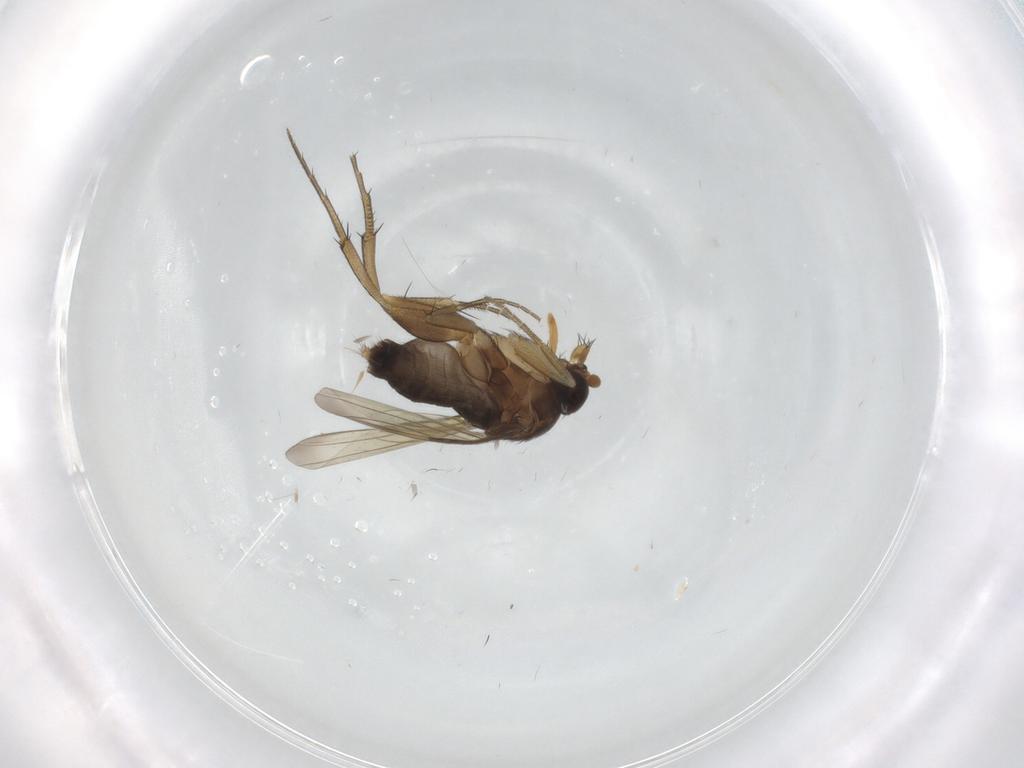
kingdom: Animalia
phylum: Arthropoda
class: Insecta
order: Diptera
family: Phoridae
